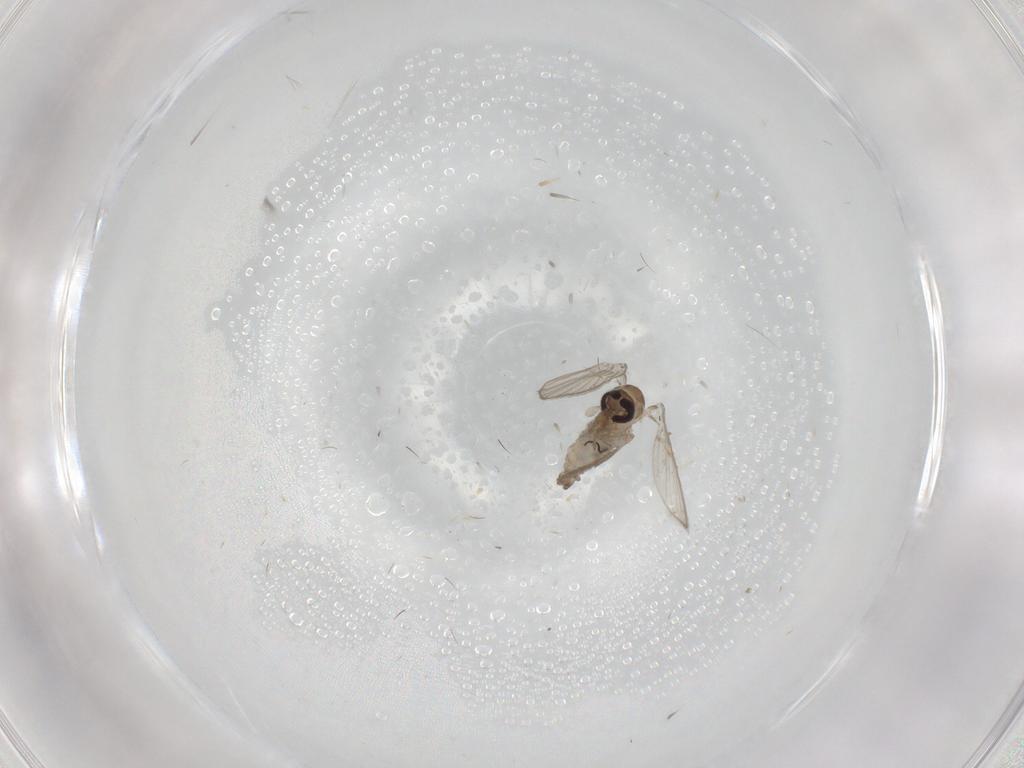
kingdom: Animalia
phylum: Arthropoda
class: Insecta
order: Diptera
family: Psychodidae
